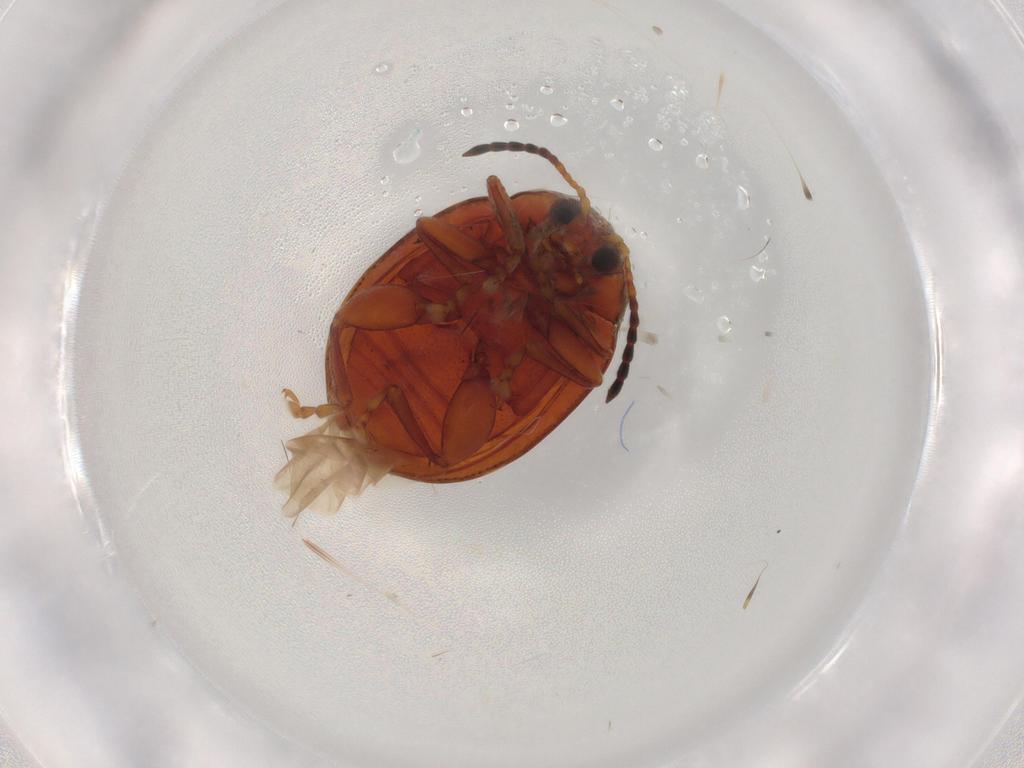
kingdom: Animalia
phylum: Arthropoda
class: Insecta
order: Coleoptera
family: Chrysomelidae
